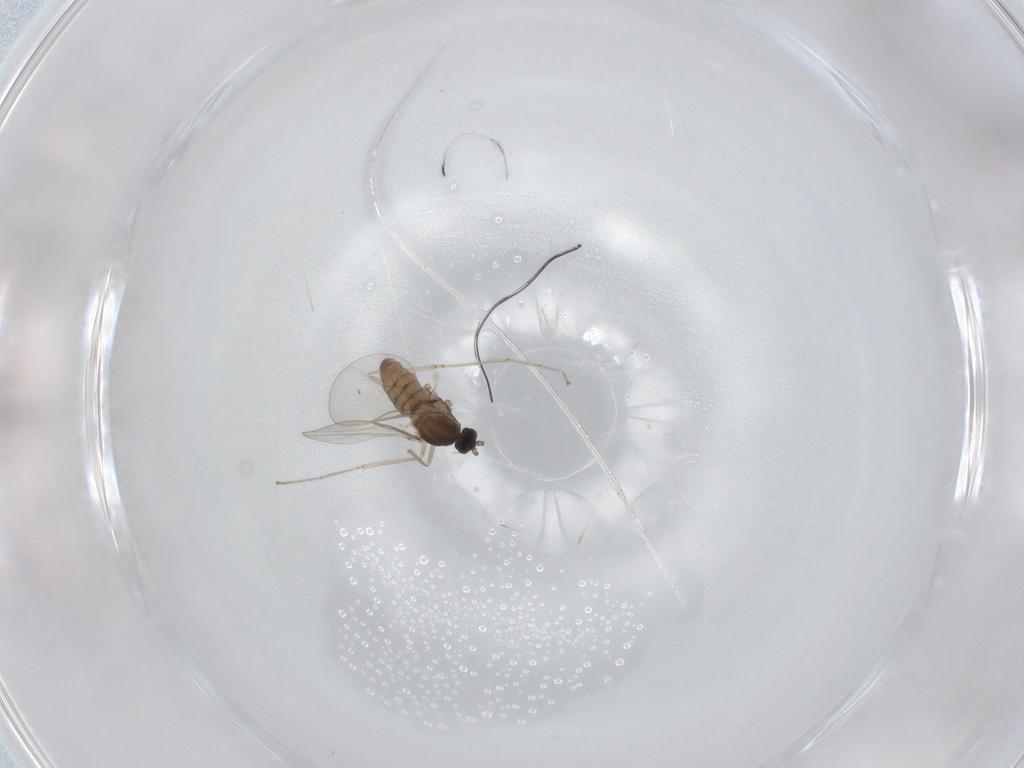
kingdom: Animalia
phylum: Arthropoda
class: Insecta
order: Diptera
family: Cecidomyiidae
